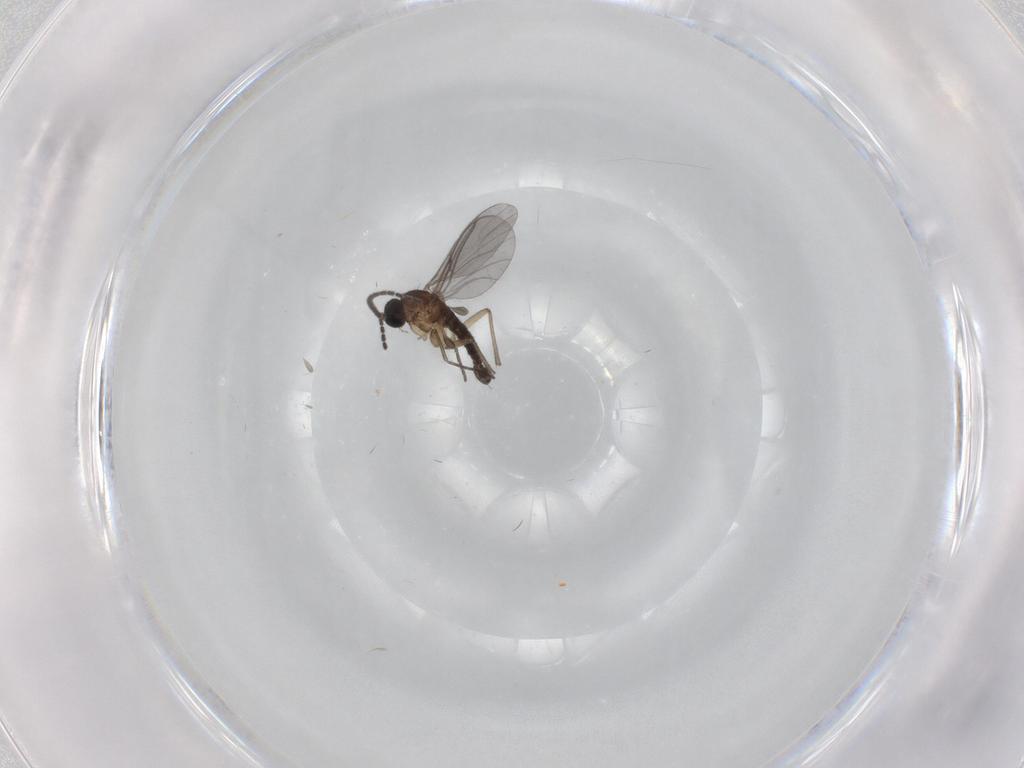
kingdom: Animalia
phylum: Arthropoda
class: Insecta
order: Diptera
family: Sciaridae
